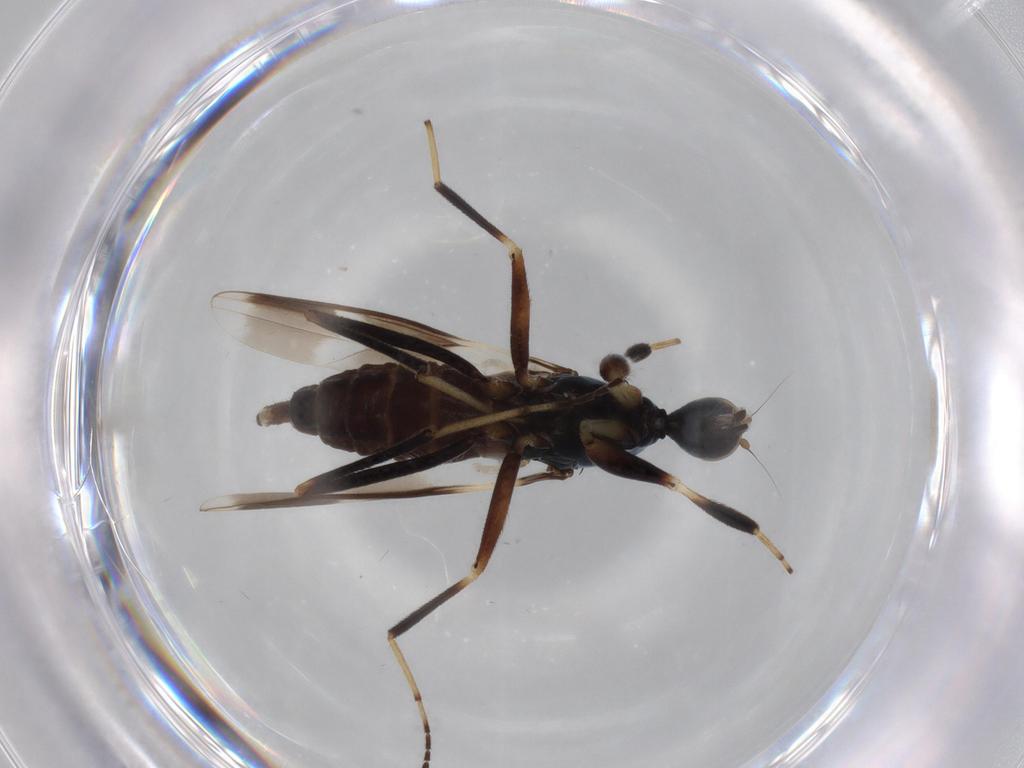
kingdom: Animalia
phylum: Arthropoda
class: Insecta
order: Diptera
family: Hybotidae
